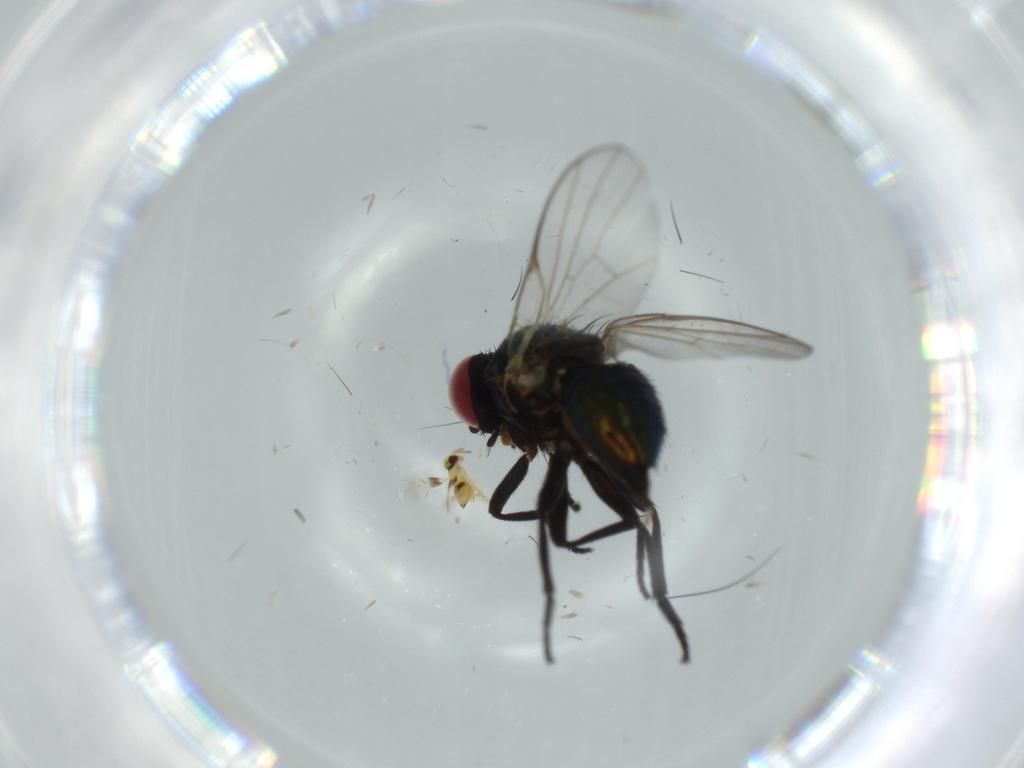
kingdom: Animalia
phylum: Arthropoda
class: Insecta
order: Diptera
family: Agromyzidae
